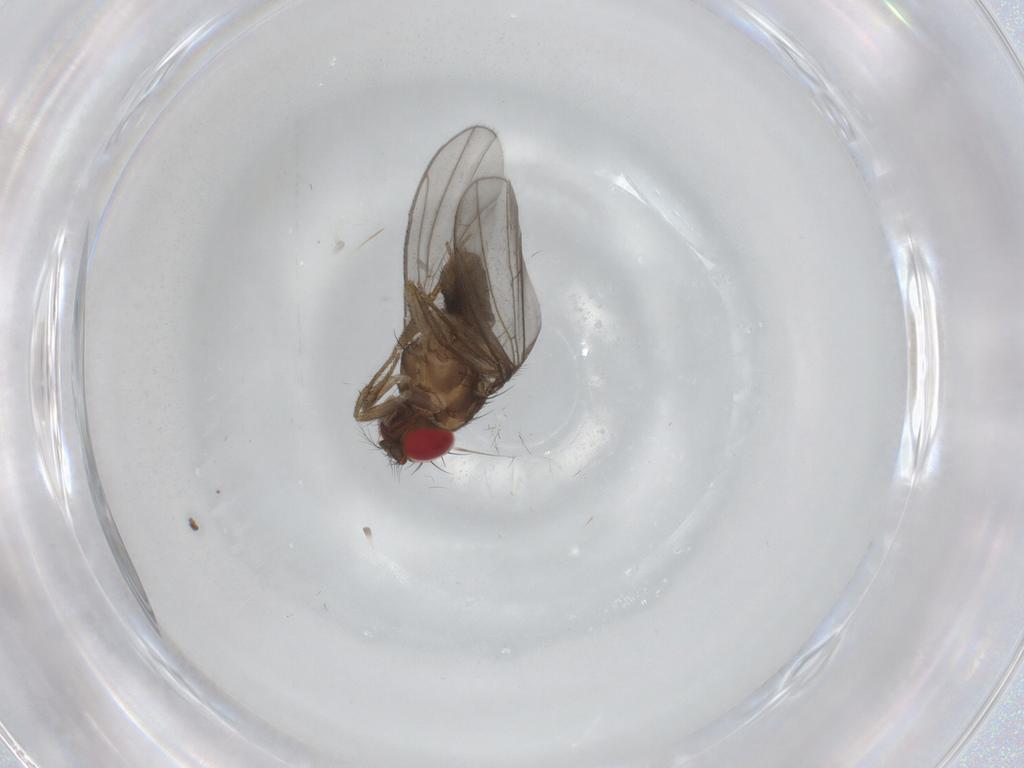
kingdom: Animalia
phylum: Arthropoda
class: Insecta
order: Diptera
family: Drosophilidae
